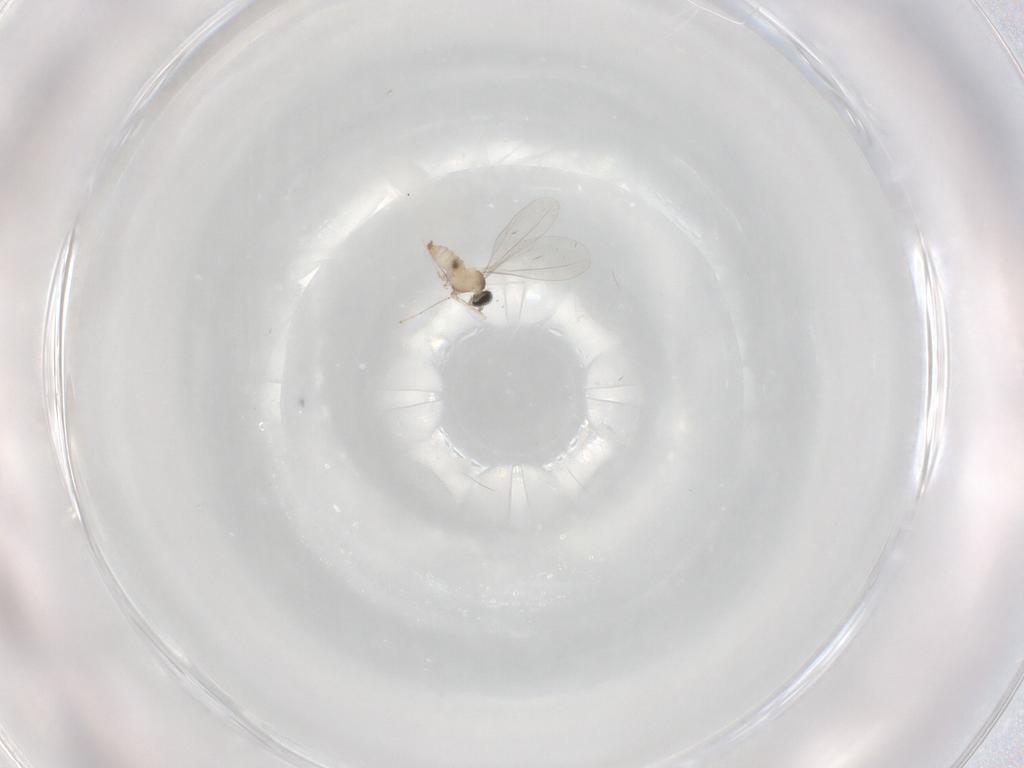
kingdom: Animalia
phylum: Arthropoda
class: Insecta
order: Diptera
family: Cecidomyiidae
